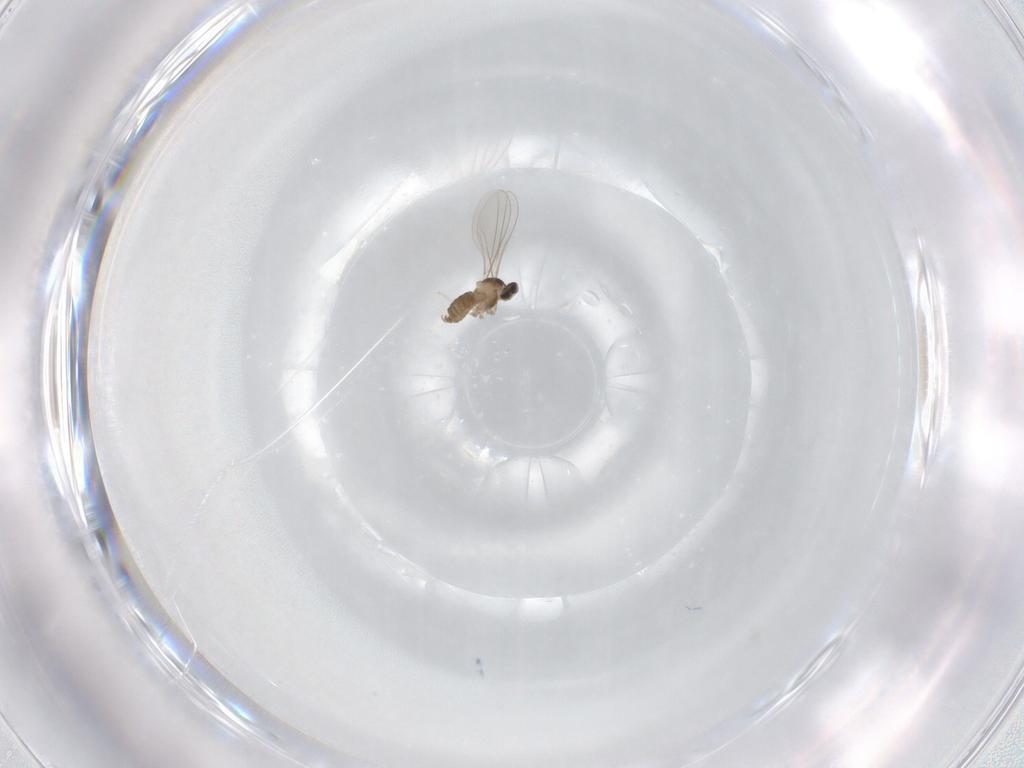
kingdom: Animalia
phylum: Arthropoda
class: Insecta
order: Diptera
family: Cecidomyiidae
